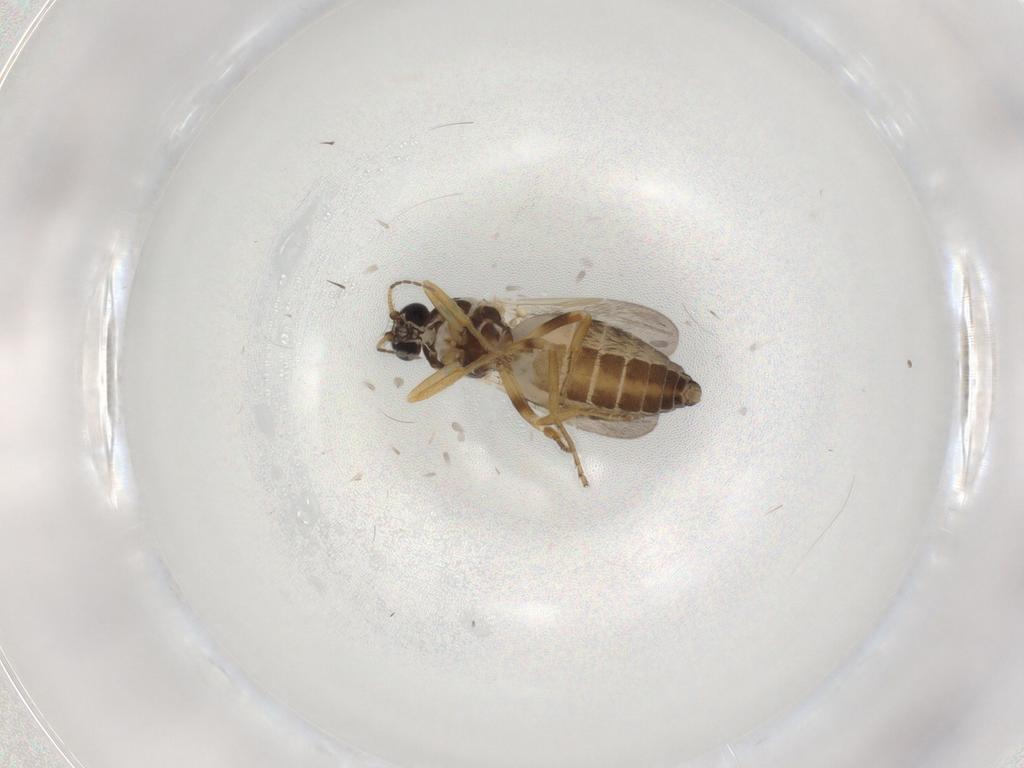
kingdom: Animalia
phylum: Arthropoda
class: Insecta
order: Diptera
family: Ceratopogonidae
